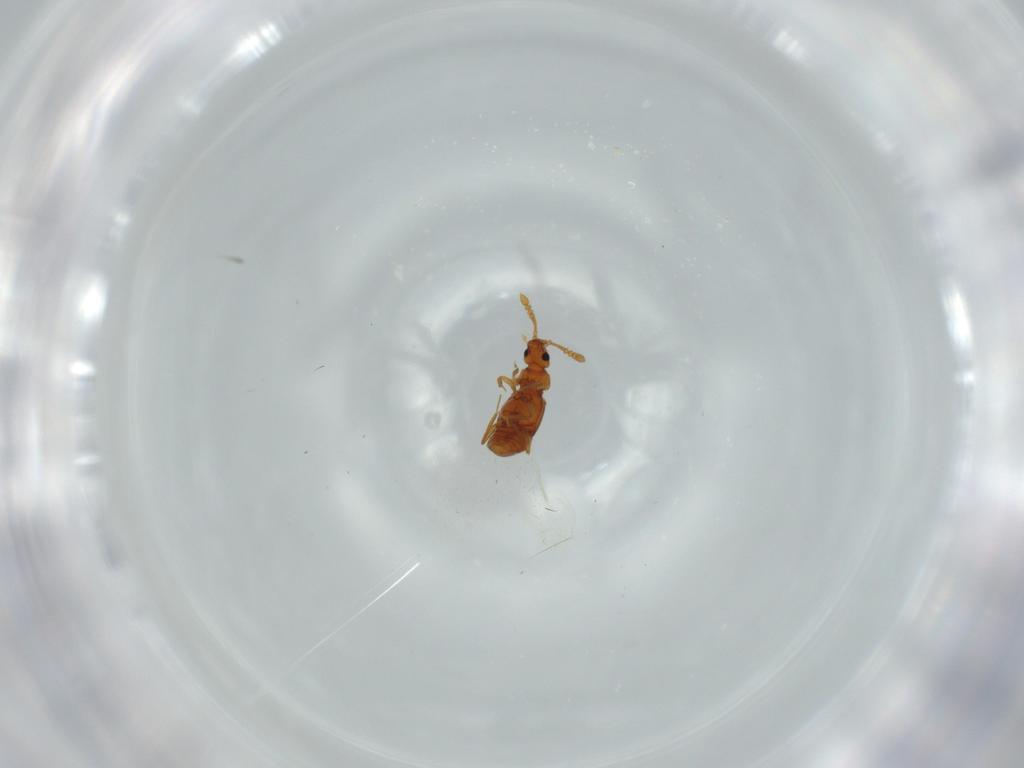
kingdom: Animalia
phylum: Arthropoda
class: Insecta
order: Coleoptera
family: Staphylinidae
